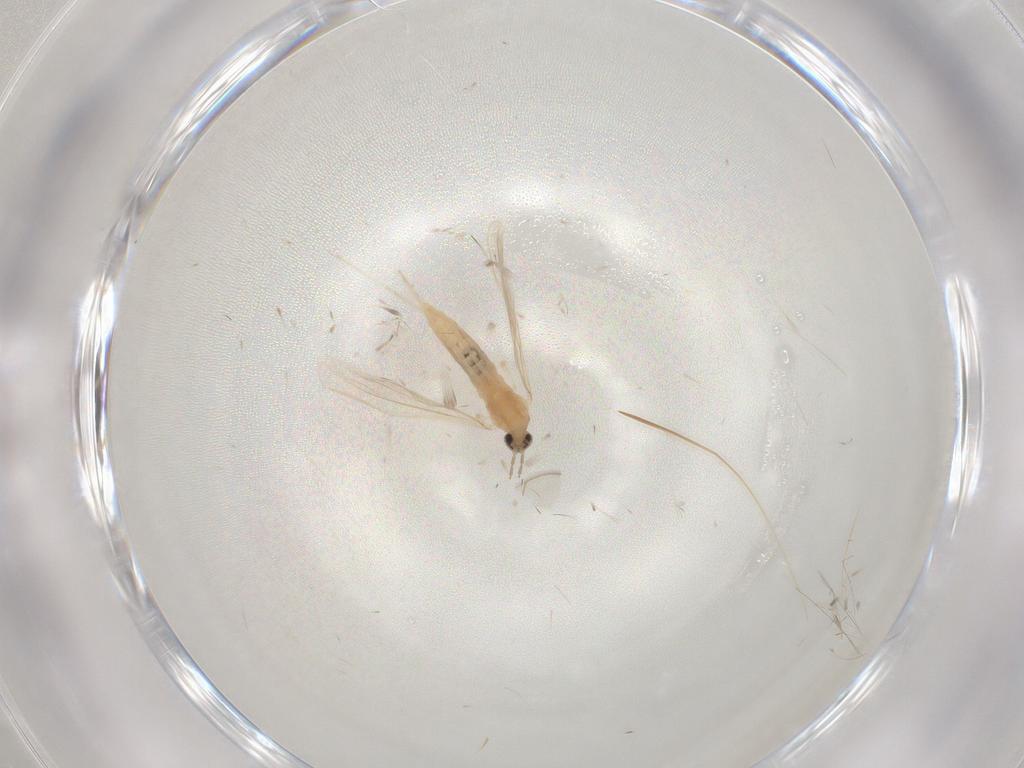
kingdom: Animalia
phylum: Arthropoda
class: Insecta
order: Diptera
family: Cecidomyiidae
